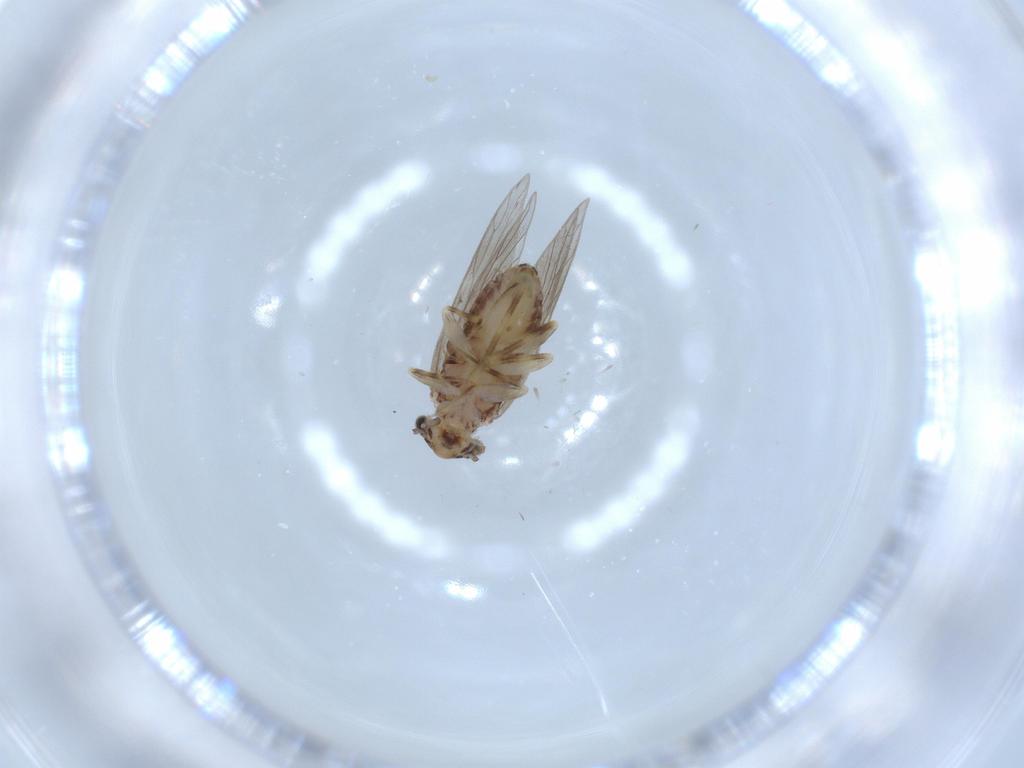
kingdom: Animalia
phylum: Arthropoda
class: Insecta
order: Psocodea
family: Lepidopsocidae
